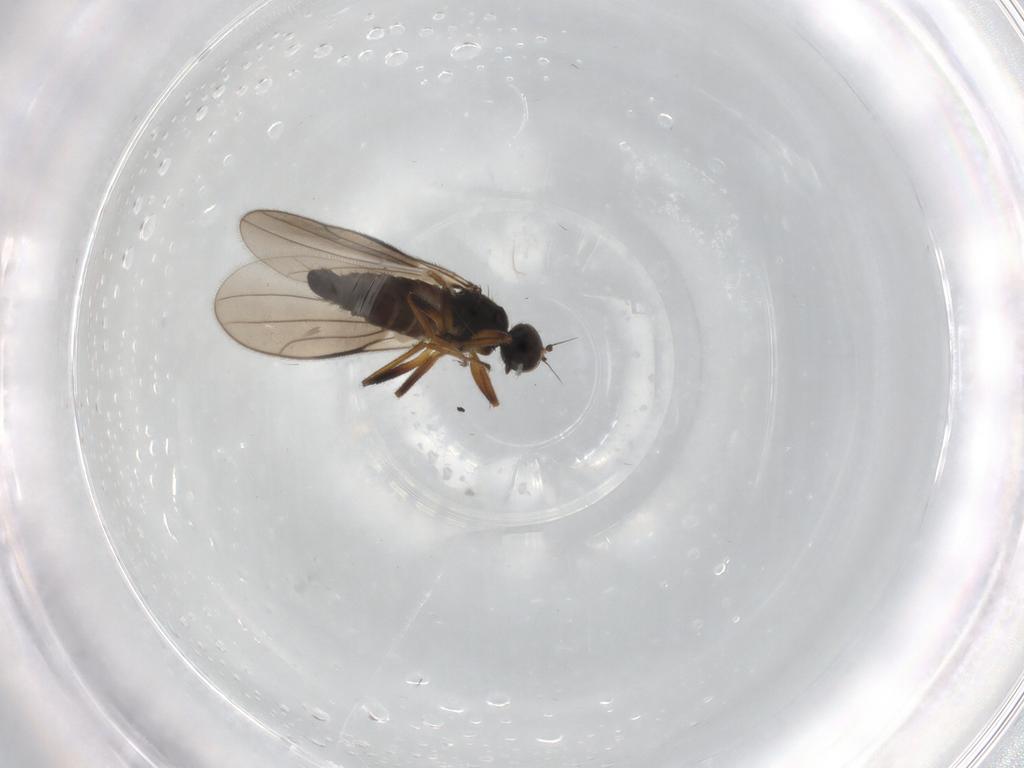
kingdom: Animalia
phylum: Arthropoda
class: Insecta
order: Diptera
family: Hybotidae
